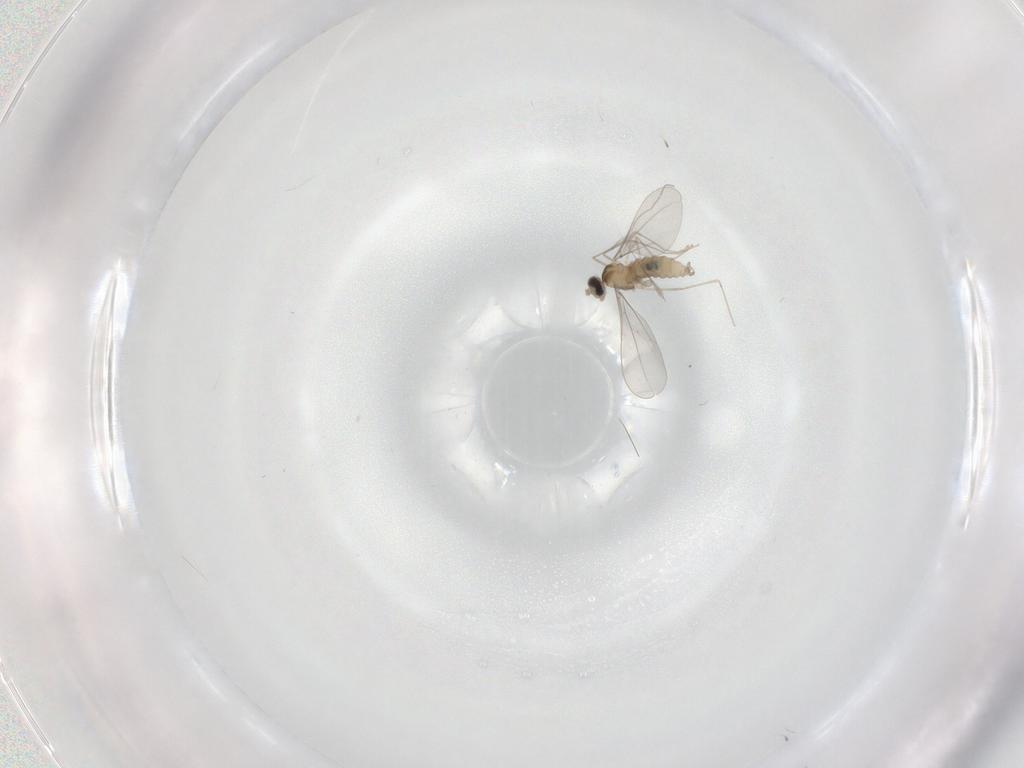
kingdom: Animalia
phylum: Arthropoda
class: Insecta
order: Diptera
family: Cecidomyiidae
